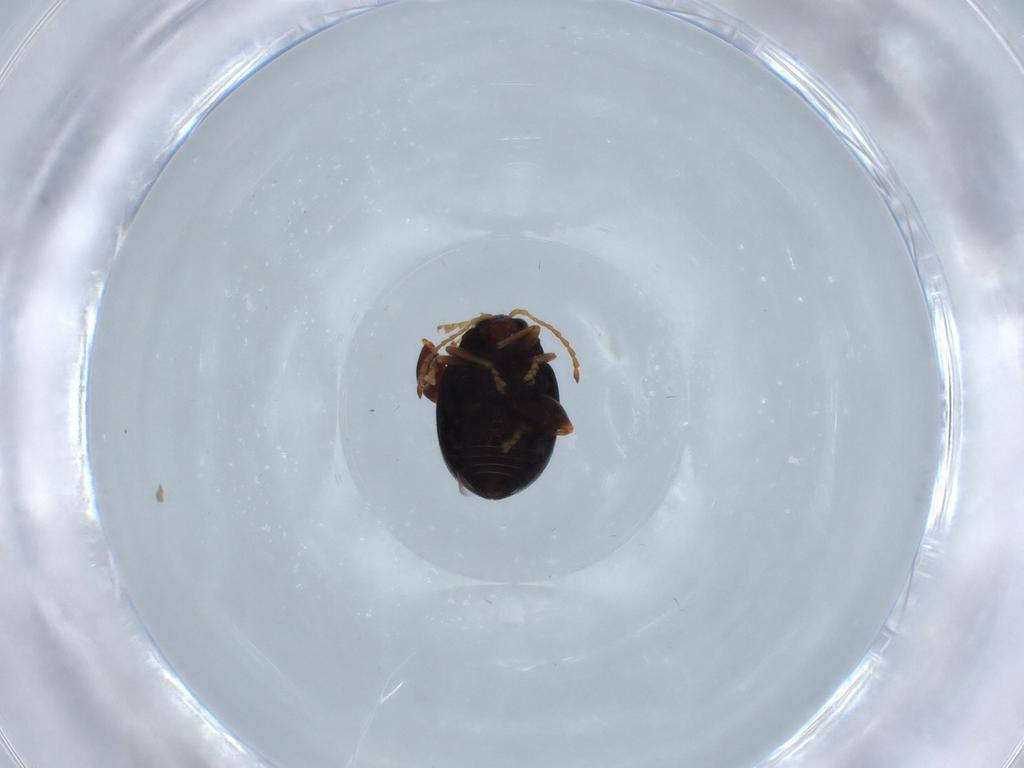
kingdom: Animalia
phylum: Arthropoda
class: Insecta
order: Coleoptera
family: Chrysomelidae
